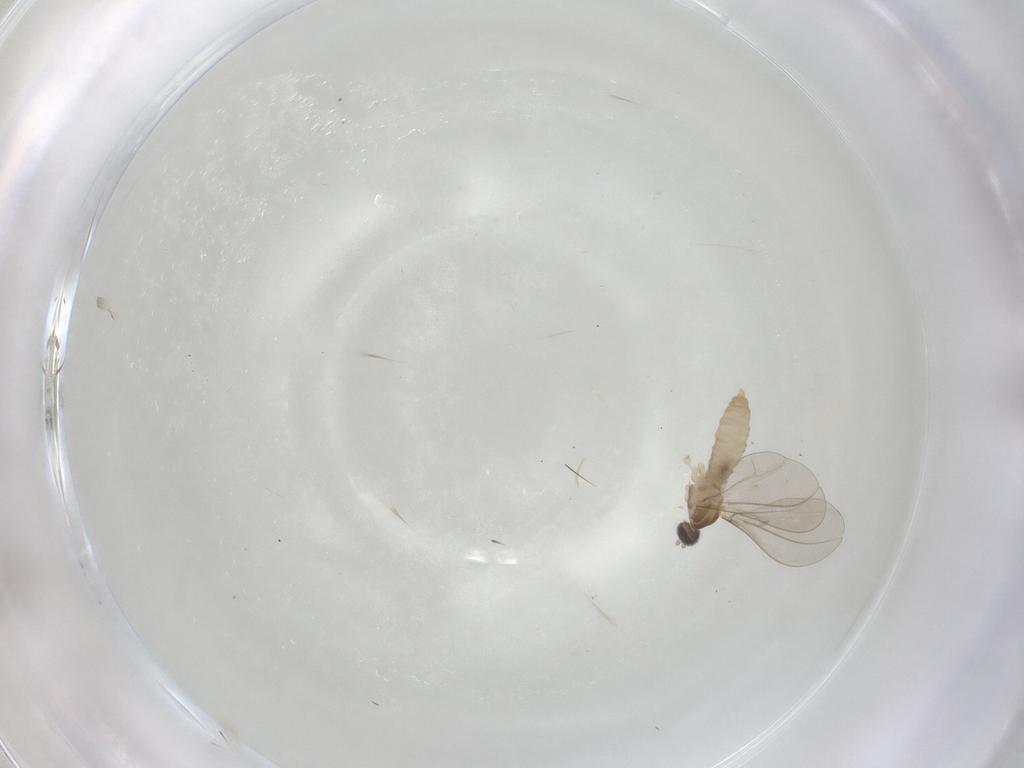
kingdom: Animalia
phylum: Arthropoda
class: Insecta
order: Diptera
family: Cecidomyiidae
